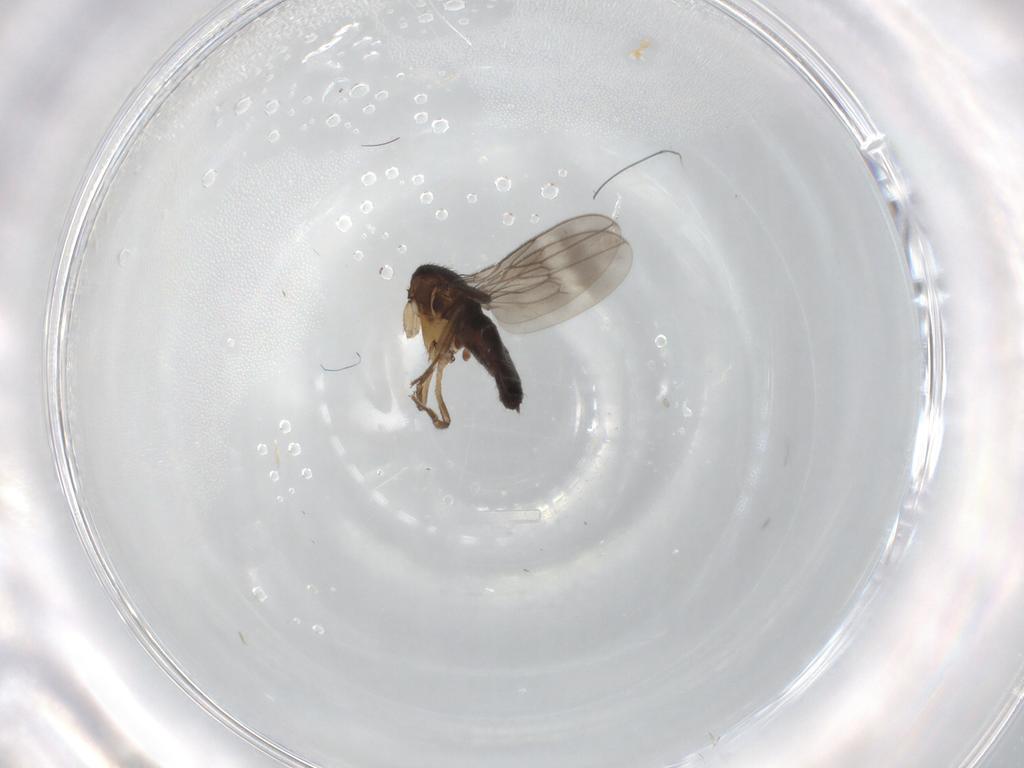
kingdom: Animalia
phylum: Arthropoda
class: Insecta
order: Diptera
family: Sphaeroceridae
